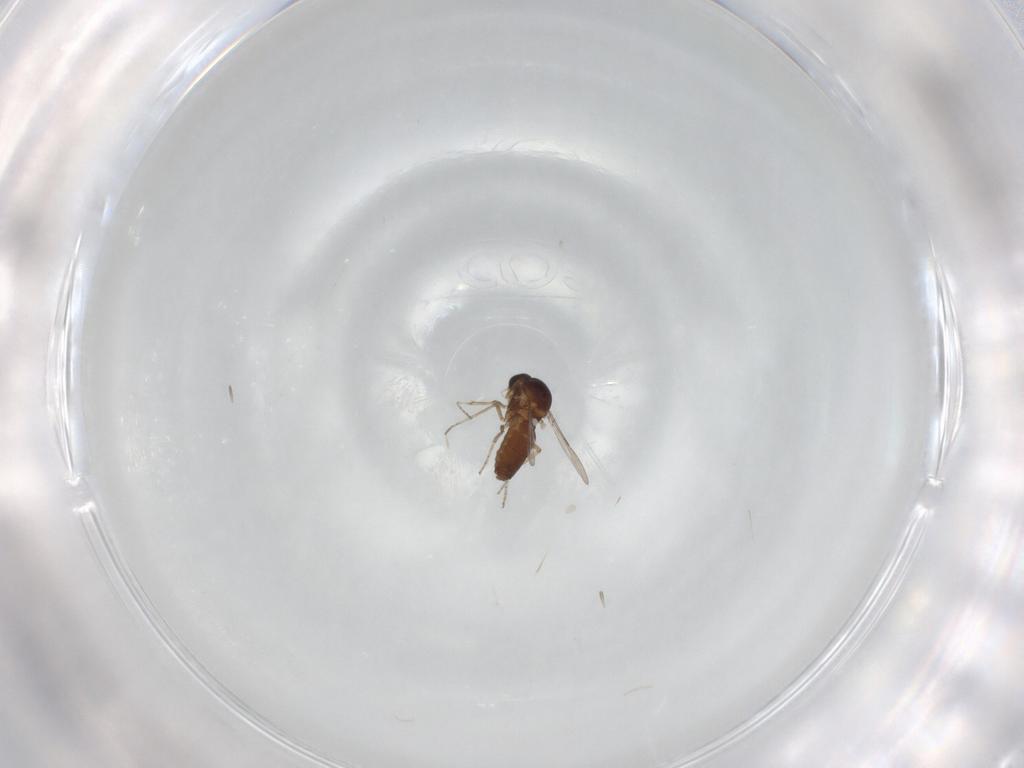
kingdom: Animalia
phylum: Arthropoda
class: Insecta
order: Diptera
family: Ceratopogonidae
